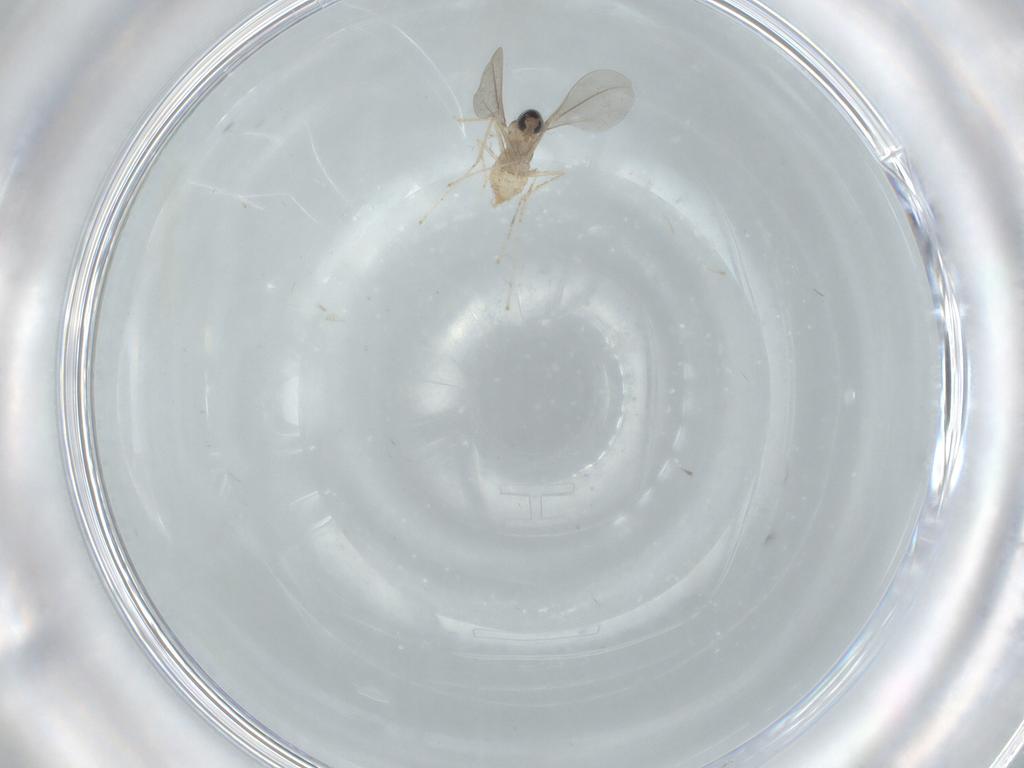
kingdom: Animalia
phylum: Arthropoda
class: Insecta
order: Diptera
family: Cecidomyiidae
